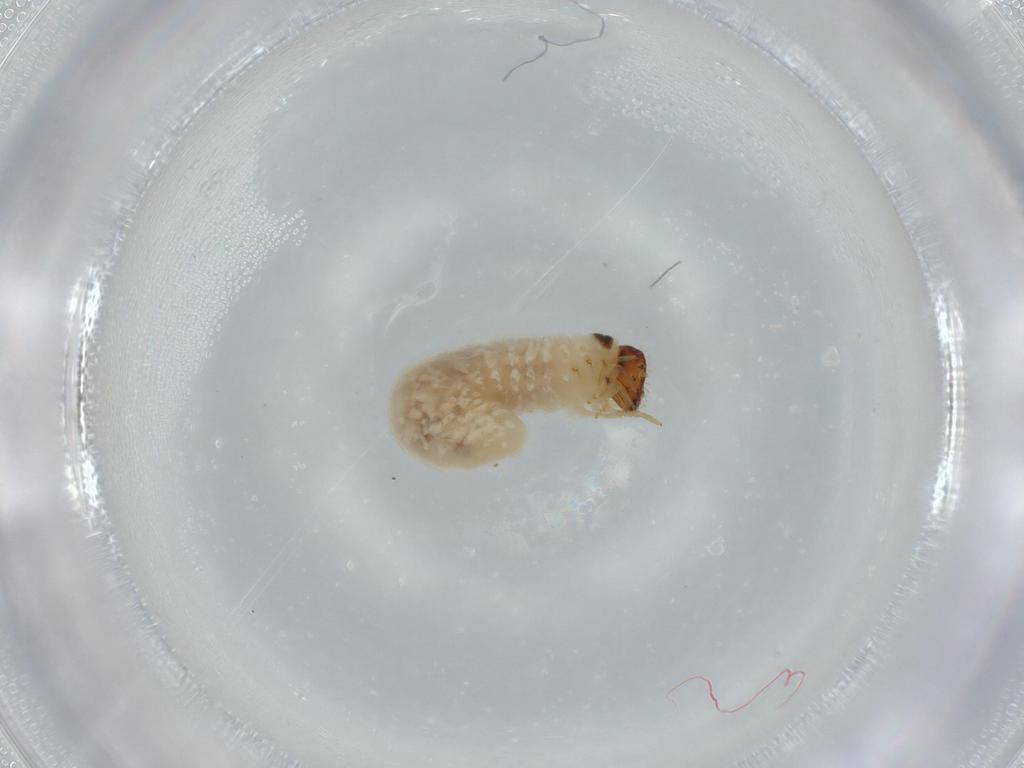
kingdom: Animalia
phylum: Arthropoda
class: Insecta
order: Coleoptera
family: Chrysomelidae
